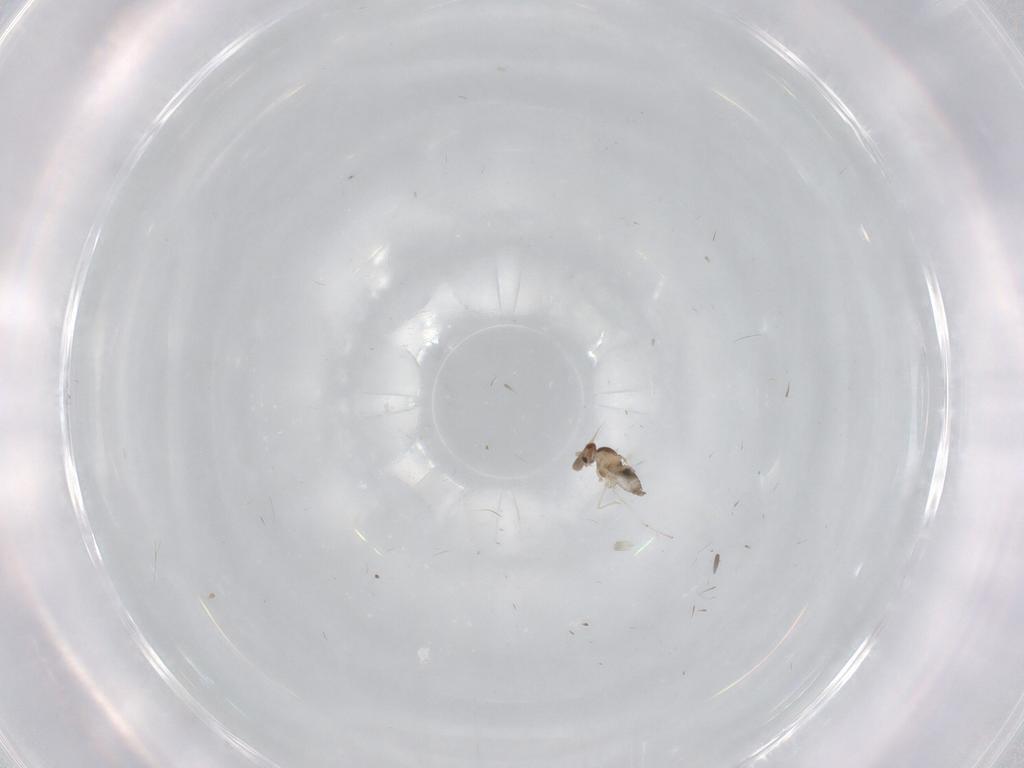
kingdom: Animalia
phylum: Arthropoda
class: Insecta
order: Diptera
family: Cecidomyiidae
